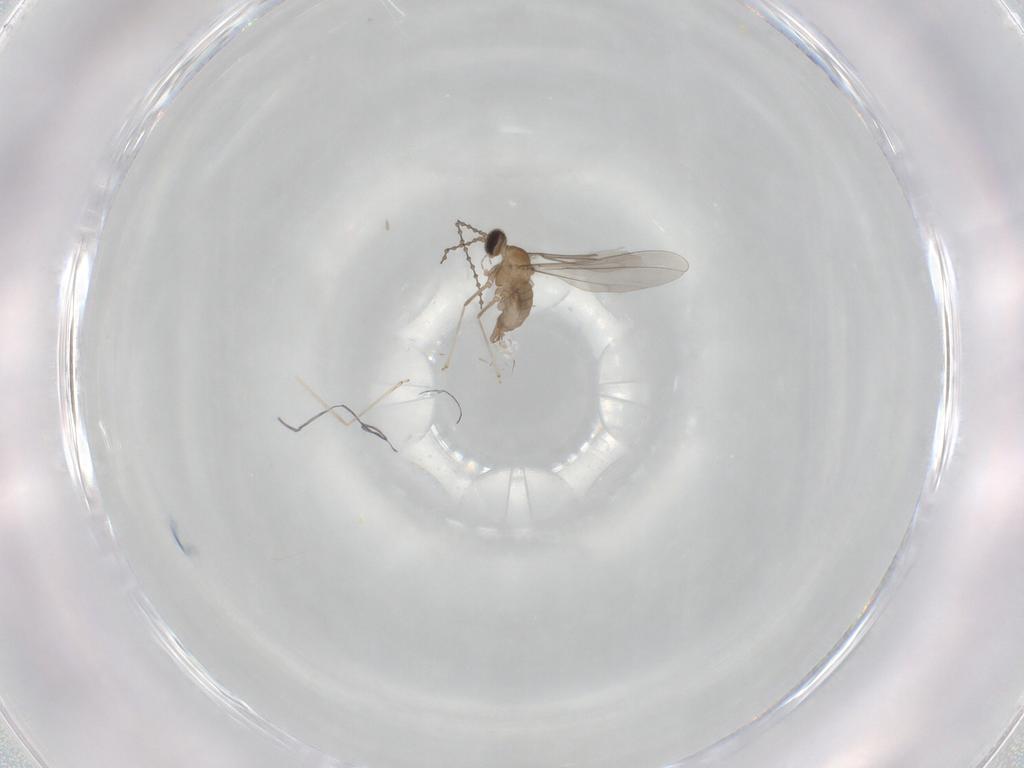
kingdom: Animalia
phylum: Arthropoda
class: Insecta
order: Diptera
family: Cecidomyiidae
